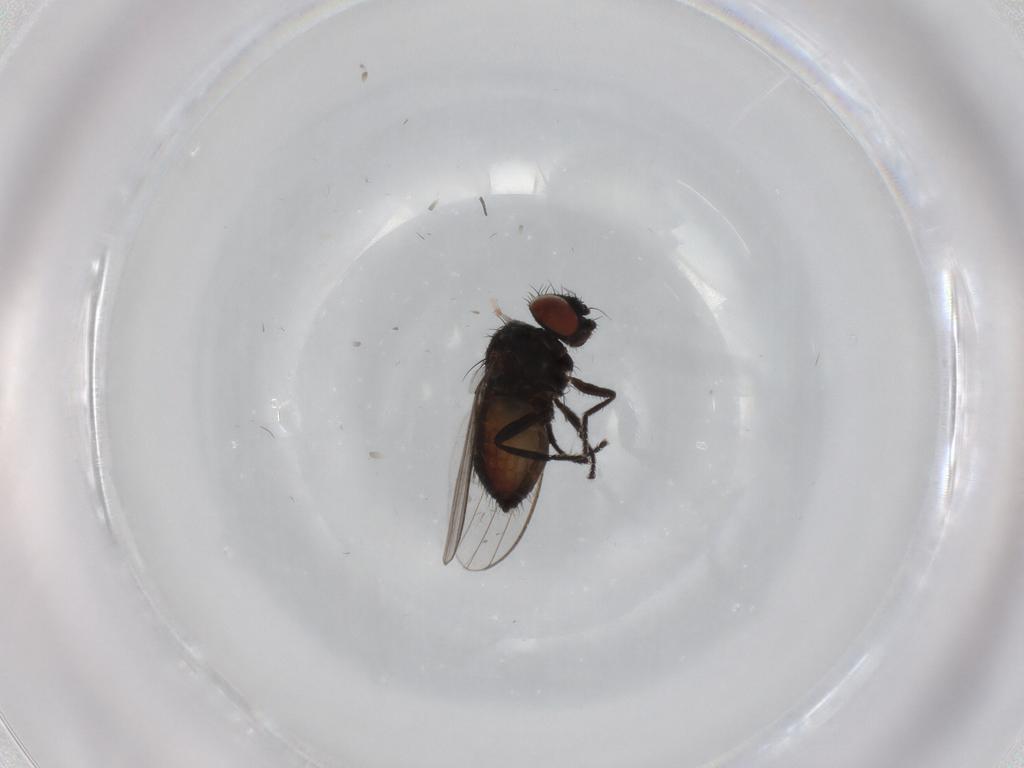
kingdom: Animalia
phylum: Arthropoda
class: Insecta
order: Diptera
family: Milichiidae
